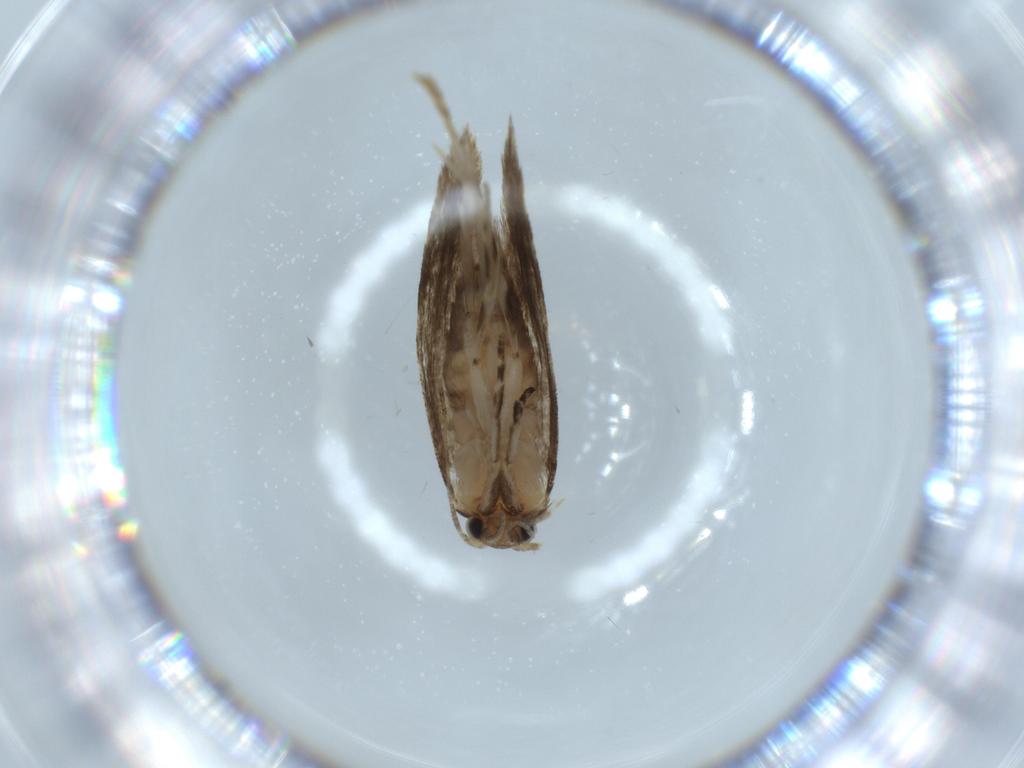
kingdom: Animalia
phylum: Arthropoda
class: Insecta
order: Lepidoptera
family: Tineidae
